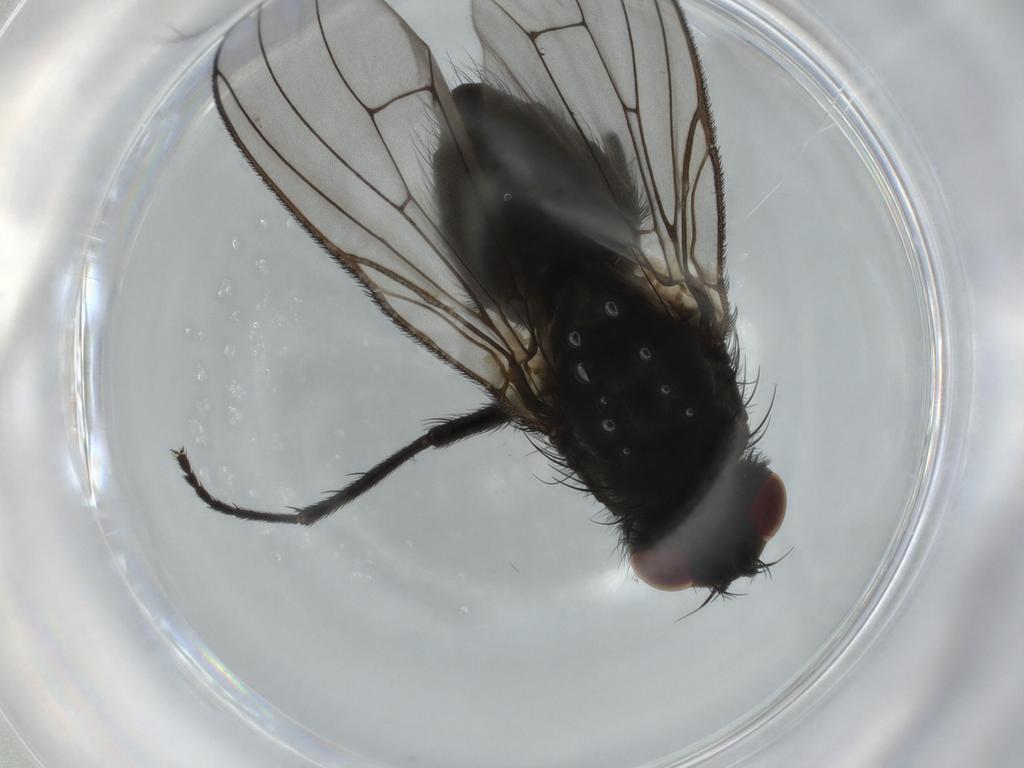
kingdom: Animalia
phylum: Arthropoda
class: Insecta
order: Diptera
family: Muscidae
